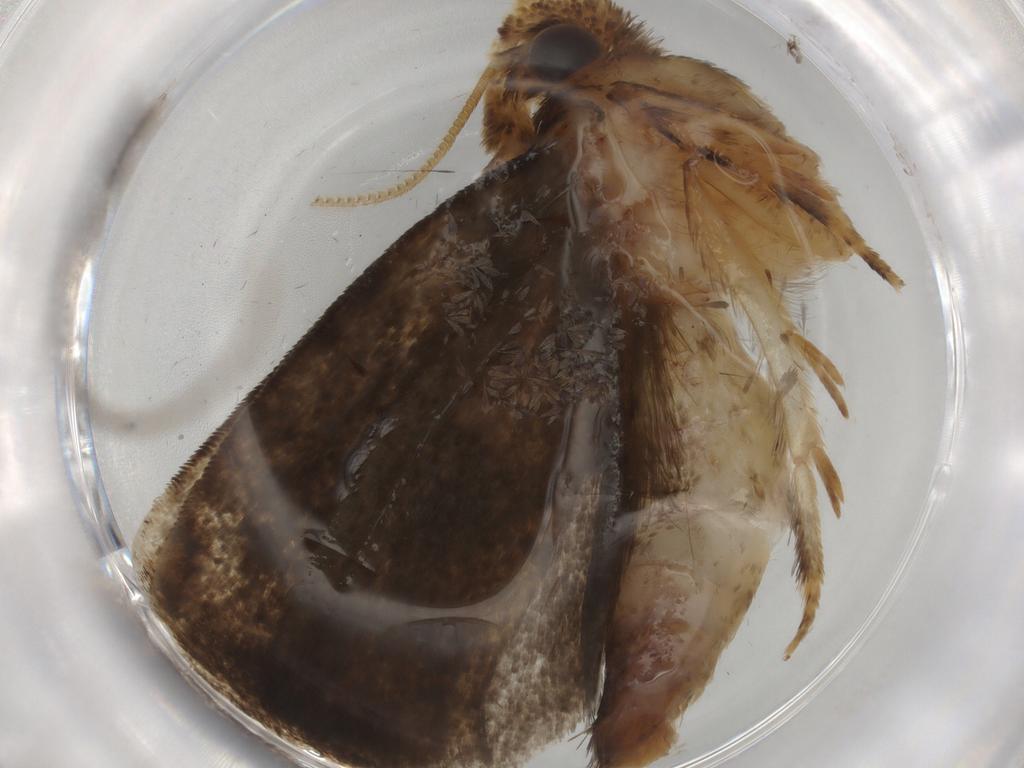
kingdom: Animalia
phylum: Arthropoda
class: Insecta
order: Lepidoptera
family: Tineidae
